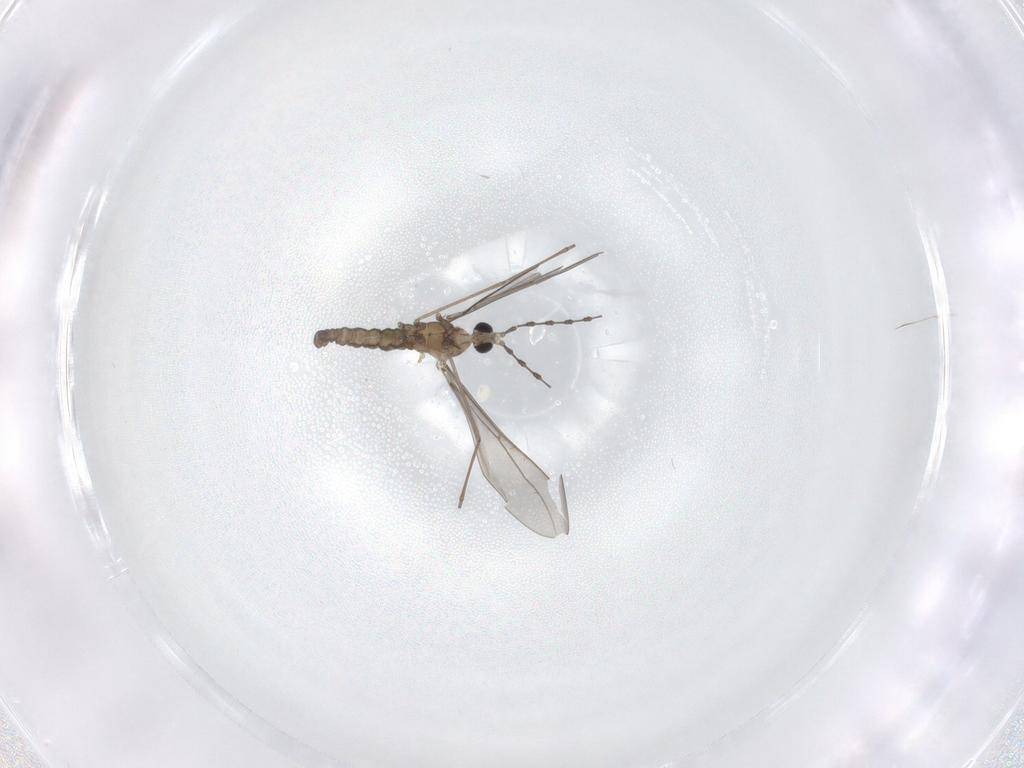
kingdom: Animalia
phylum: Arthropoda
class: Insecta
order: Diptera
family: Cecidomyiidae
